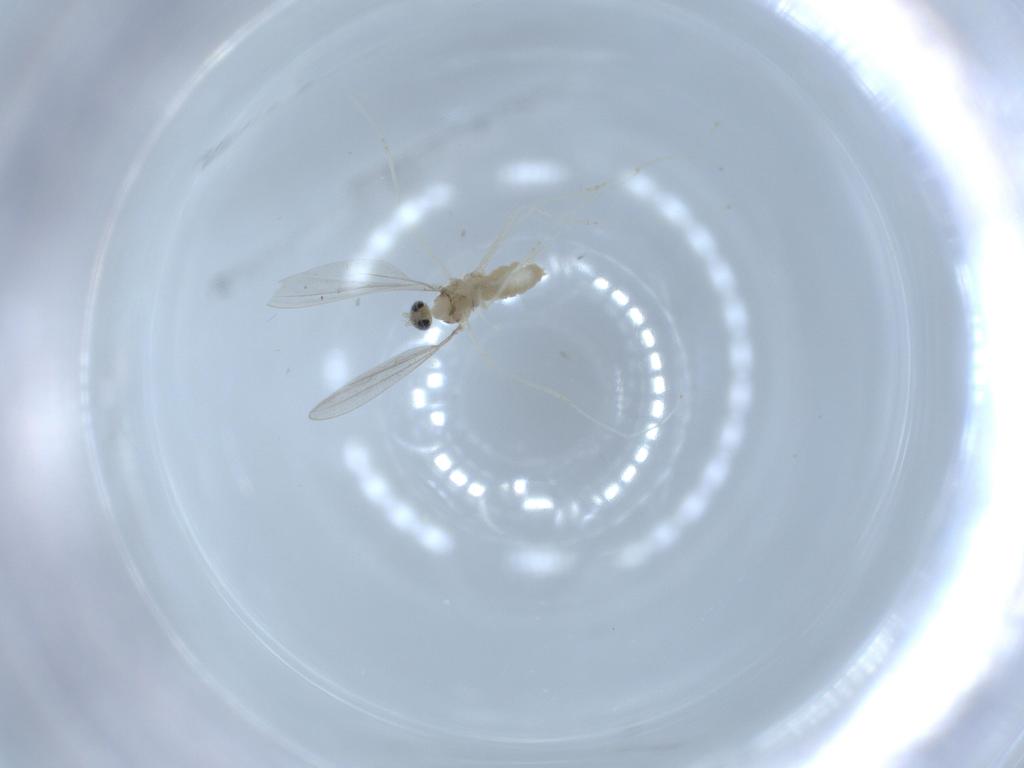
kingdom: Animalia
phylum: Arthropoda
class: Insecta
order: Diptera
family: Cecidomyiidae
